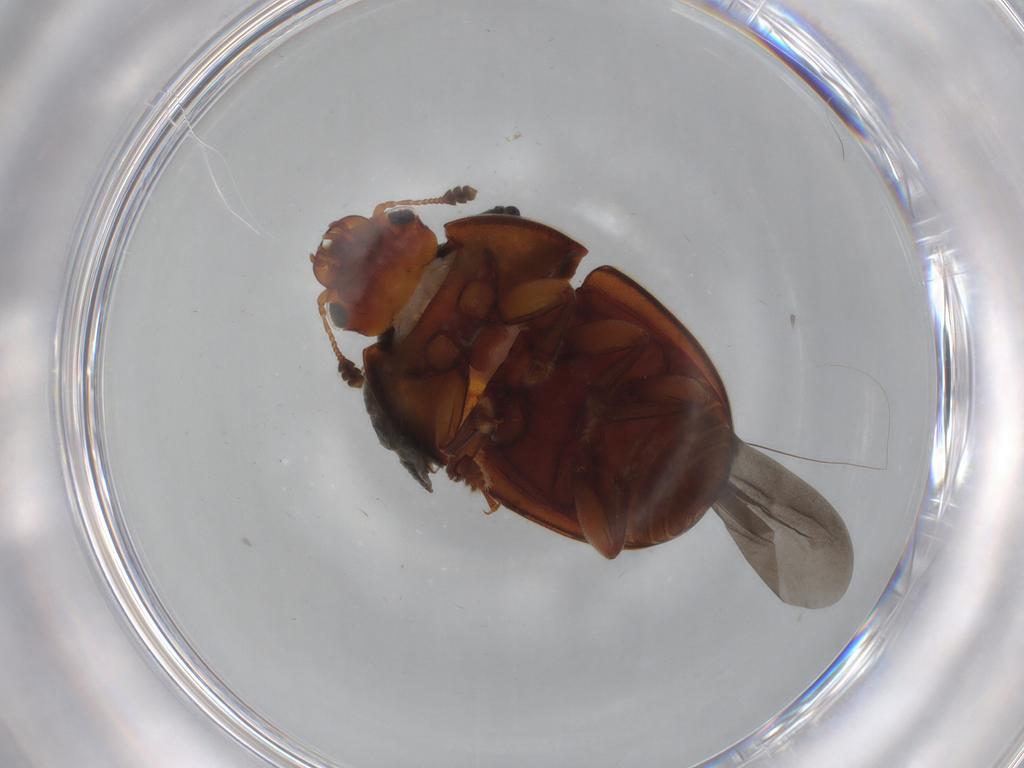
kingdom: Animalia
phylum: Arthropoda
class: Insecta
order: Coleoptera
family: Nitidulidae
